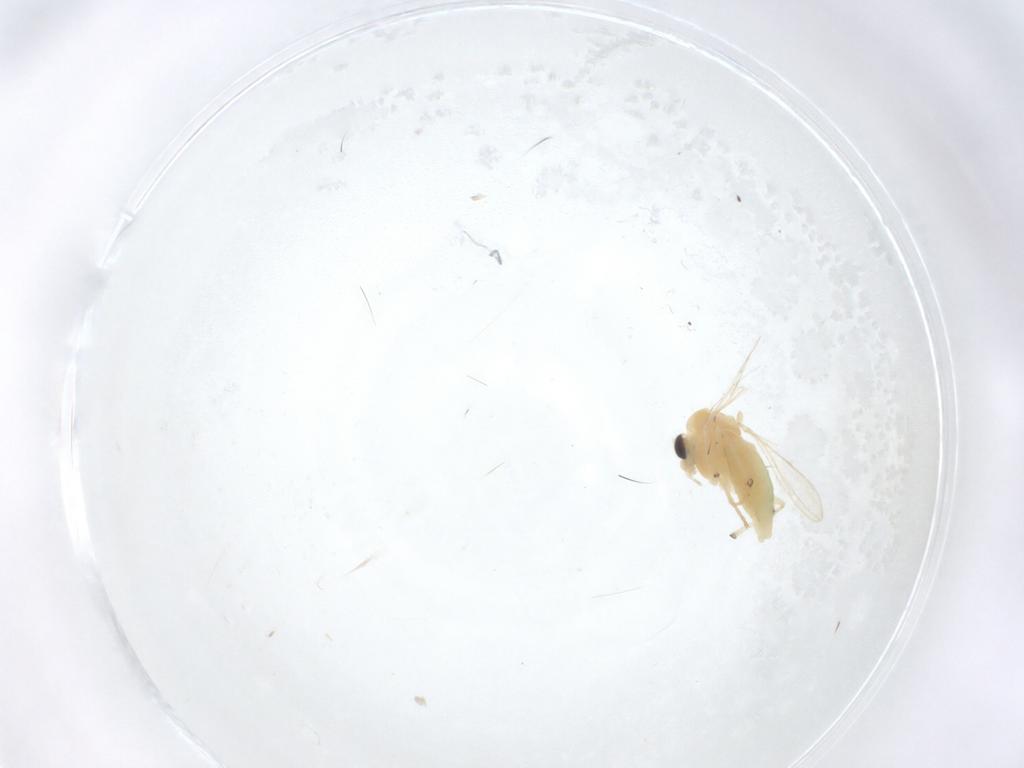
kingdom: Animalia
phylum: Arthropoda
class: Insecta
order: Diptera
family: Chironomidae
